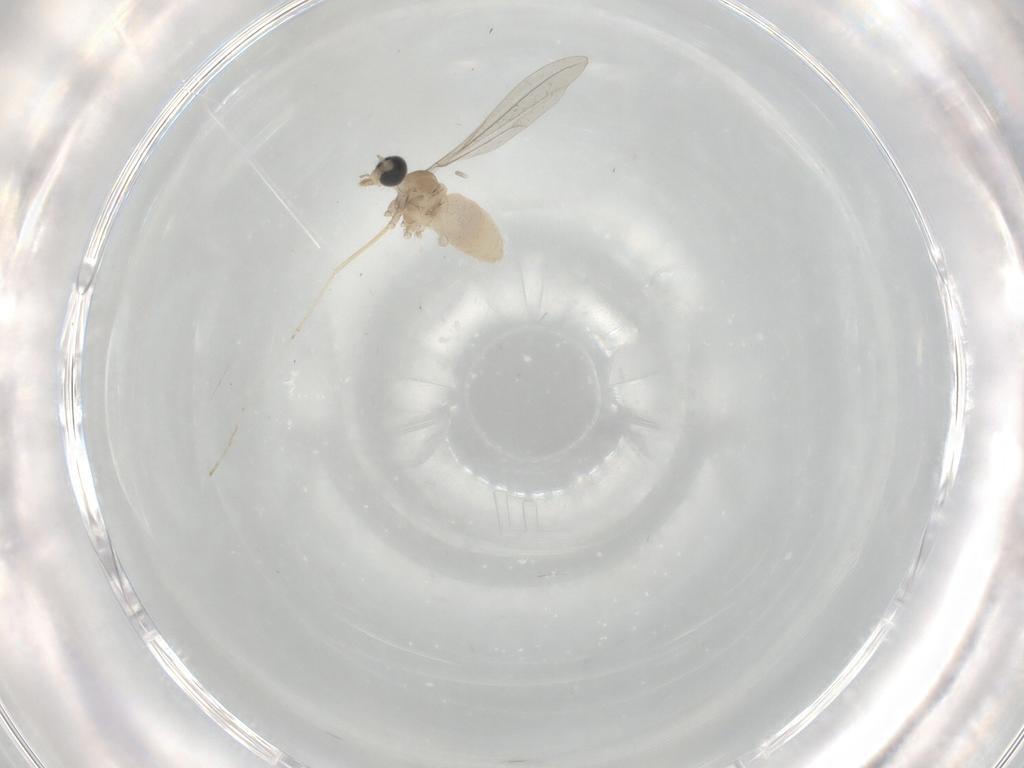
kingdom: Animalia
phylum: Arthropoda
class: Insecta
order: Diptera
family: Cecidomyiidae
